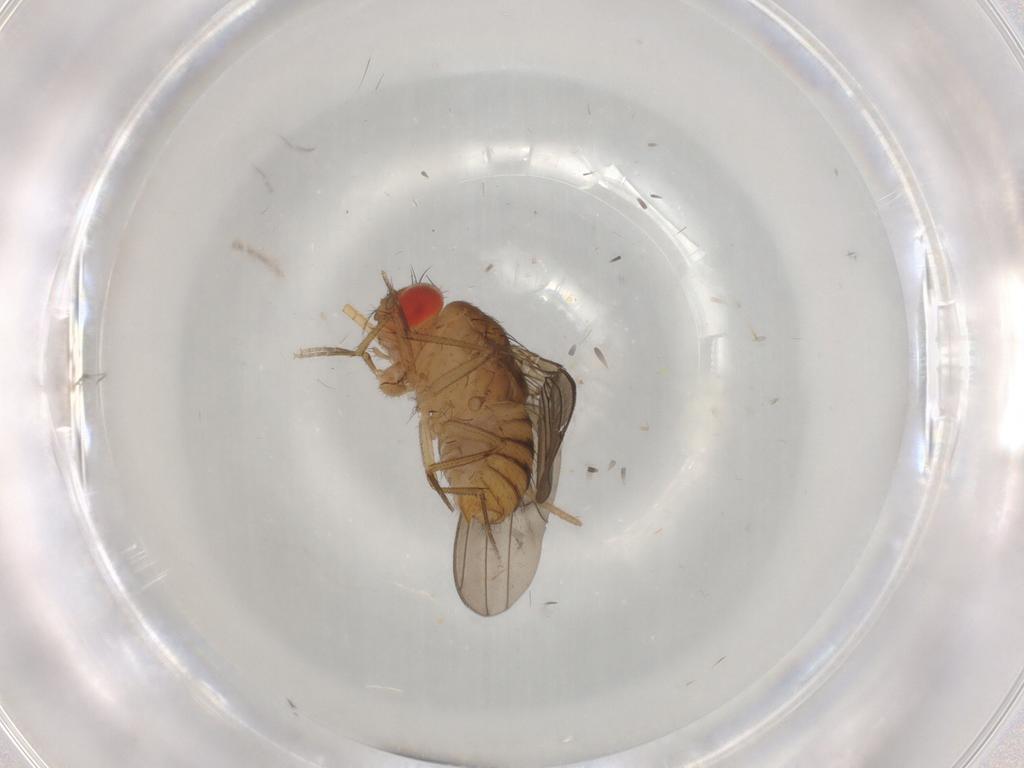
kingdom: Animalia
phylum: Arthropoda
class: Insecta
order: Diptera
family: Drosophilidae
